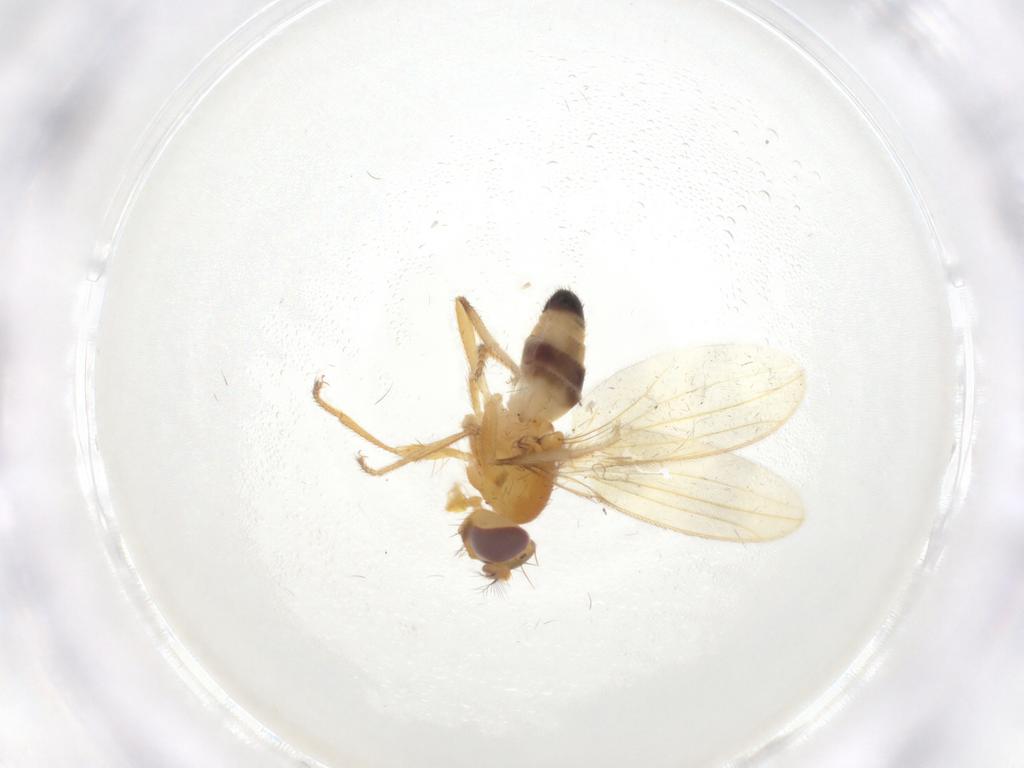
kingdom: Animalia
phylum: Arthropoda
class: Insecta
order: Diptera
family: Periscelididae
